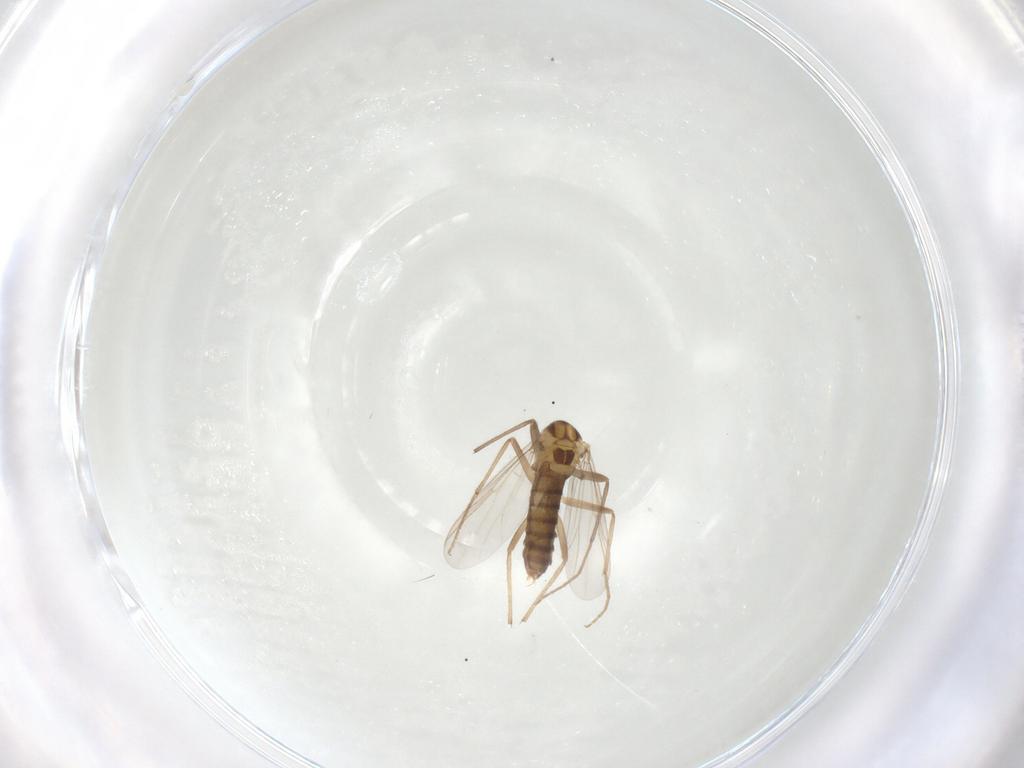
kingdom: Animalia
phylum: Arthropoda
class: Insecta
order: Diptera
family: Chironomidae
